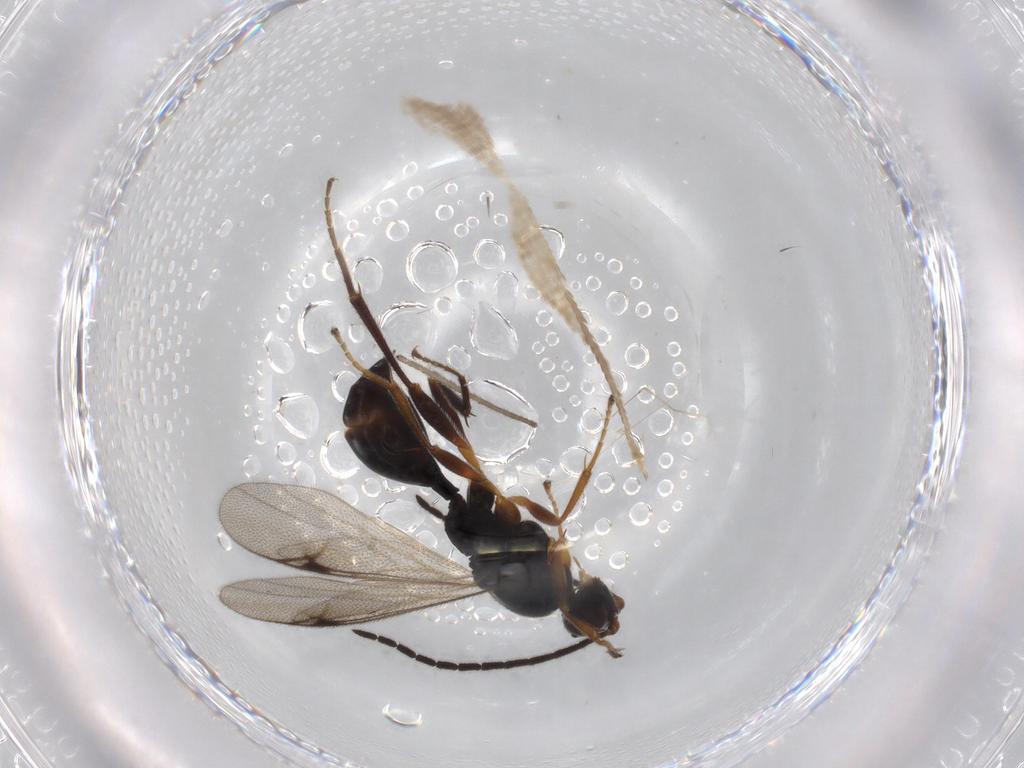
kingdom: Animalia
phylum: Arthropoda
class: Insecta
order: Hymenoptera
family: Proctotrupidae
